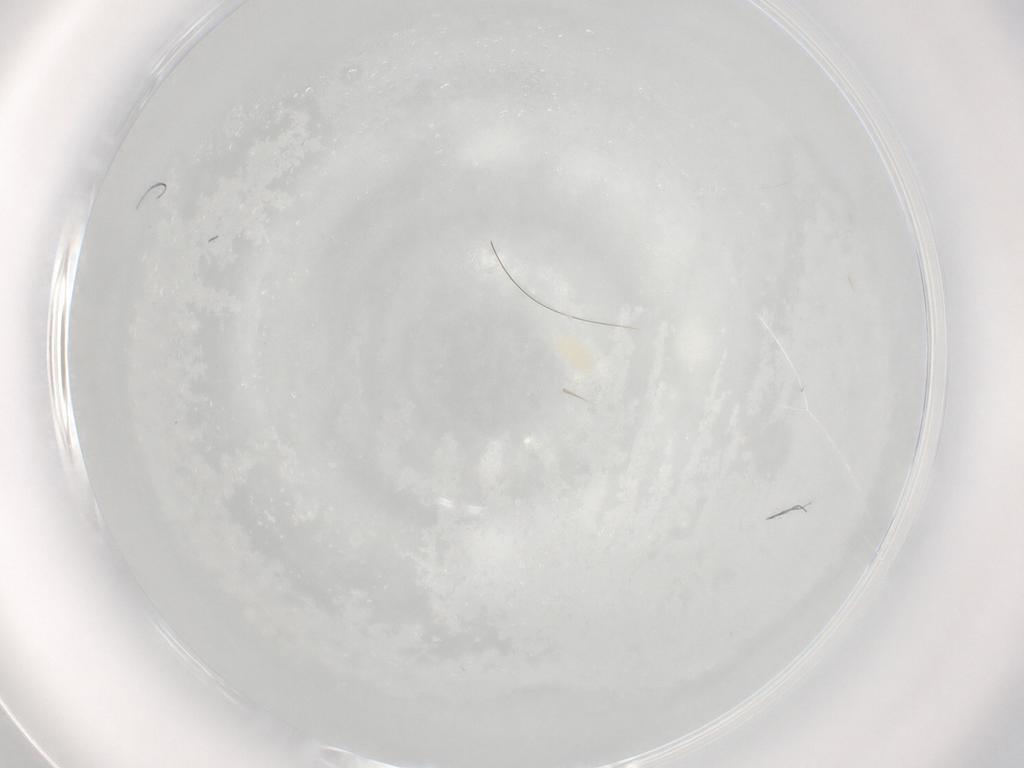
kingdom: Animalia
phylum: Arthropoda
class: Arachnida
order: Trombidiformes
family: Eupodidae
